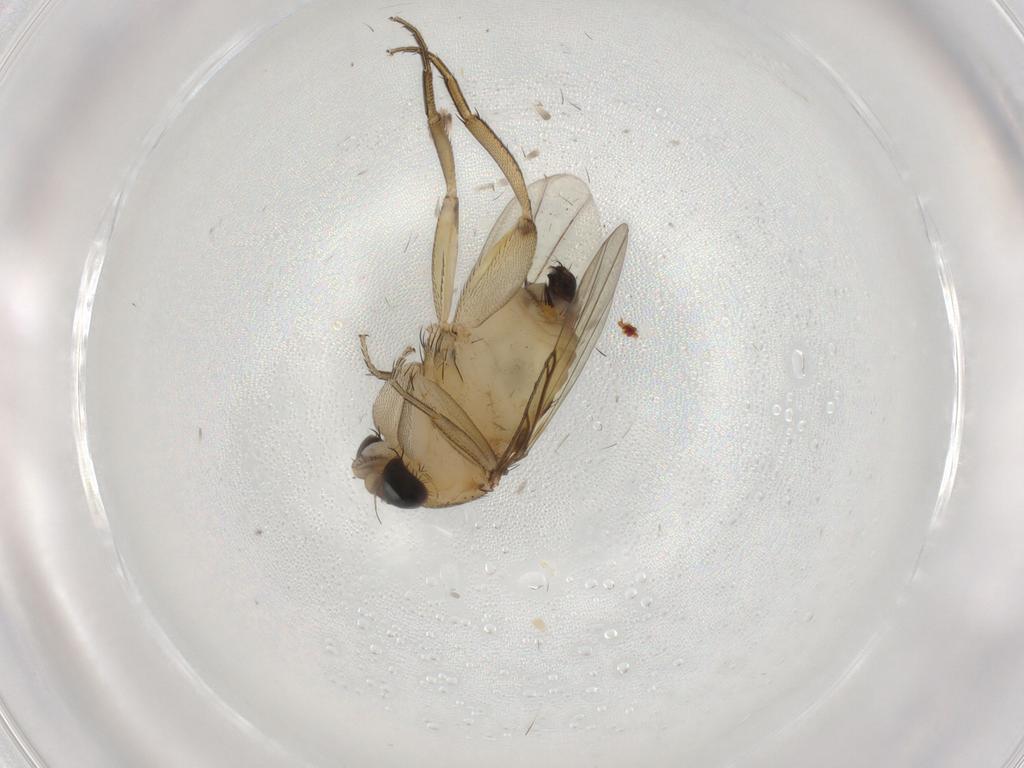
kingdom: Animalia
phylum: Arthropoda
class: Insecta
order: Diptera
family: Phoridae
